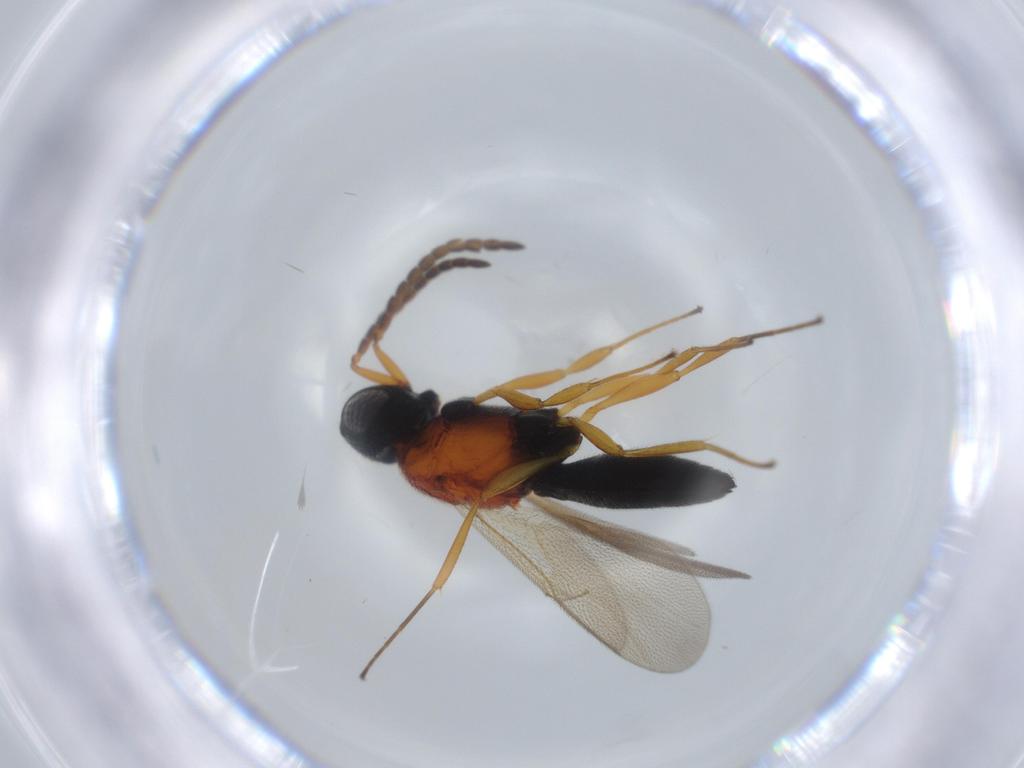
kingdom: Animalia
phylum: Arthropoda
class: Insecta
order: Hymenoptera
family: Scelionidae
